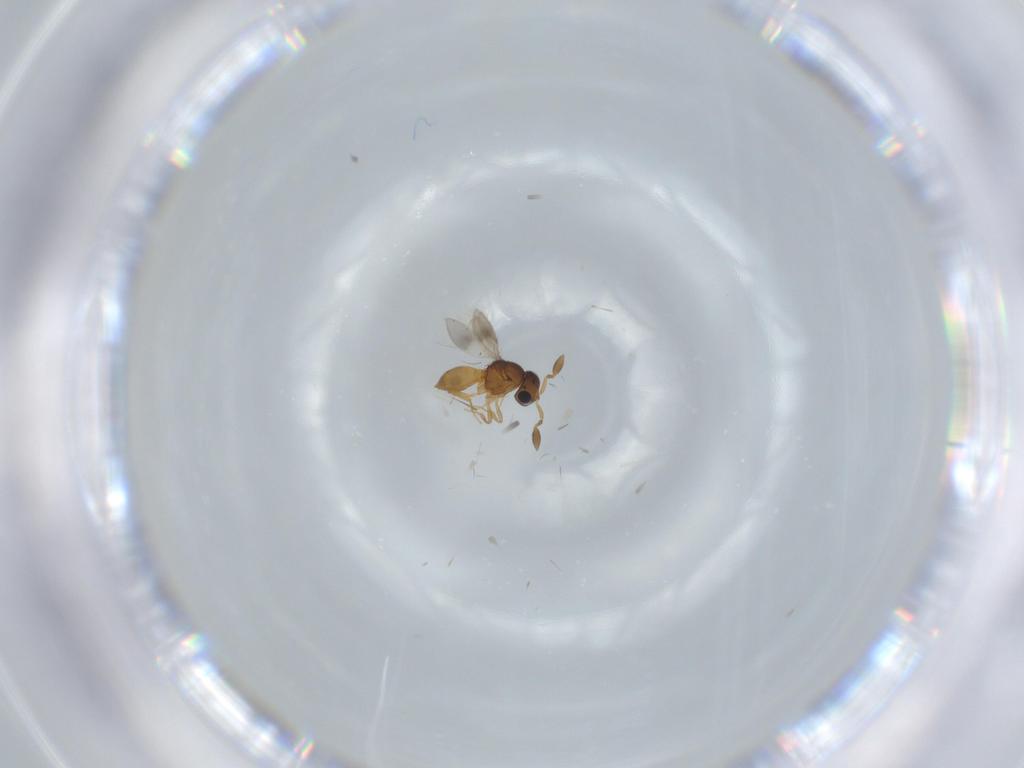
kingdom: Animalia
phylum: Arthropoda
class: Insecta
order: Hymenoptera
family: Scelionidae
